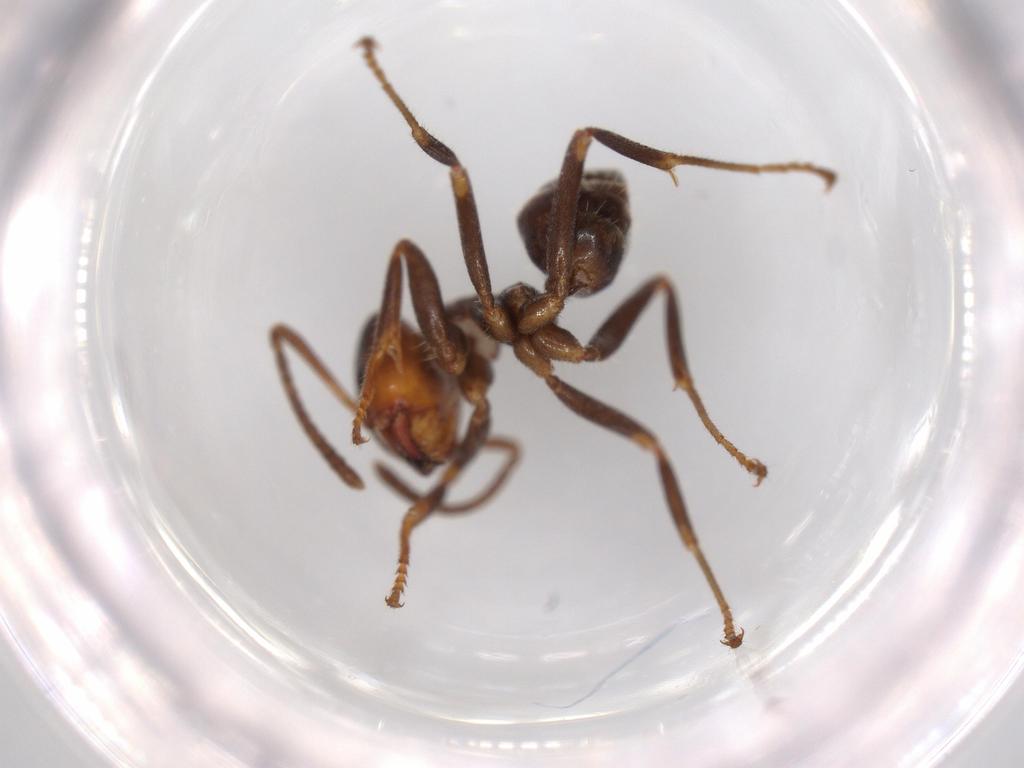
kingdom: Animalia
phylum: Arthropoda
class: Insecta
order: Hymenoptera
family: Formicidae
